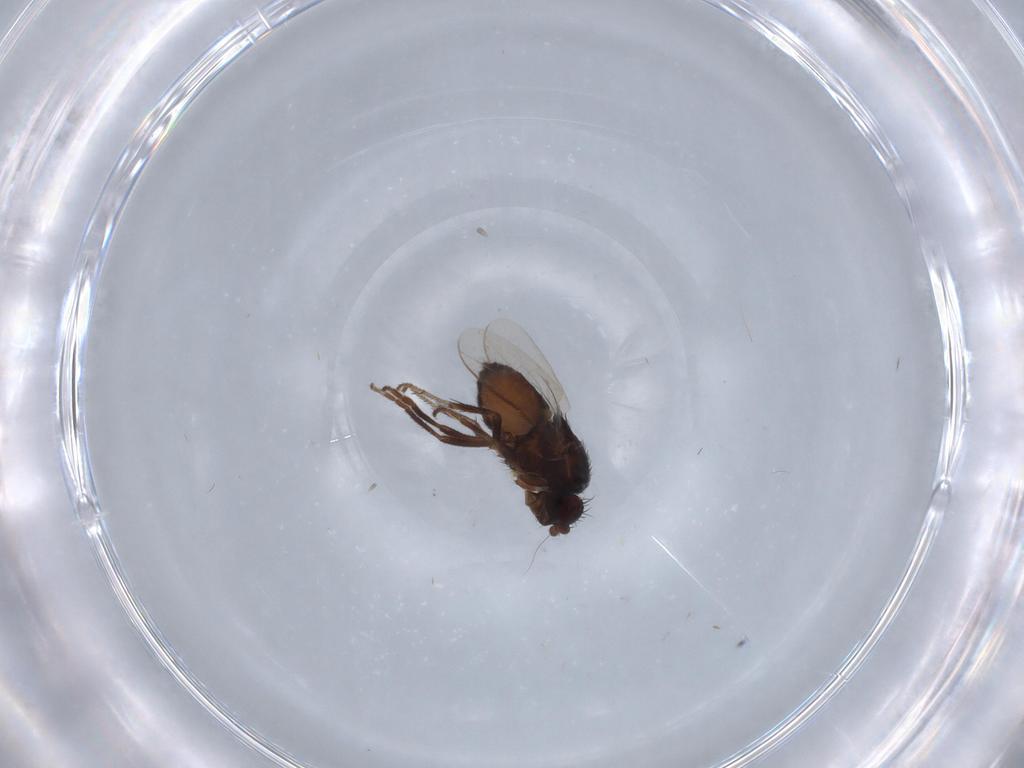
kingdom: Animalia
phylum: Arthropoda
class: Insecta
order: Diptera
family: Sphaeroceridae
